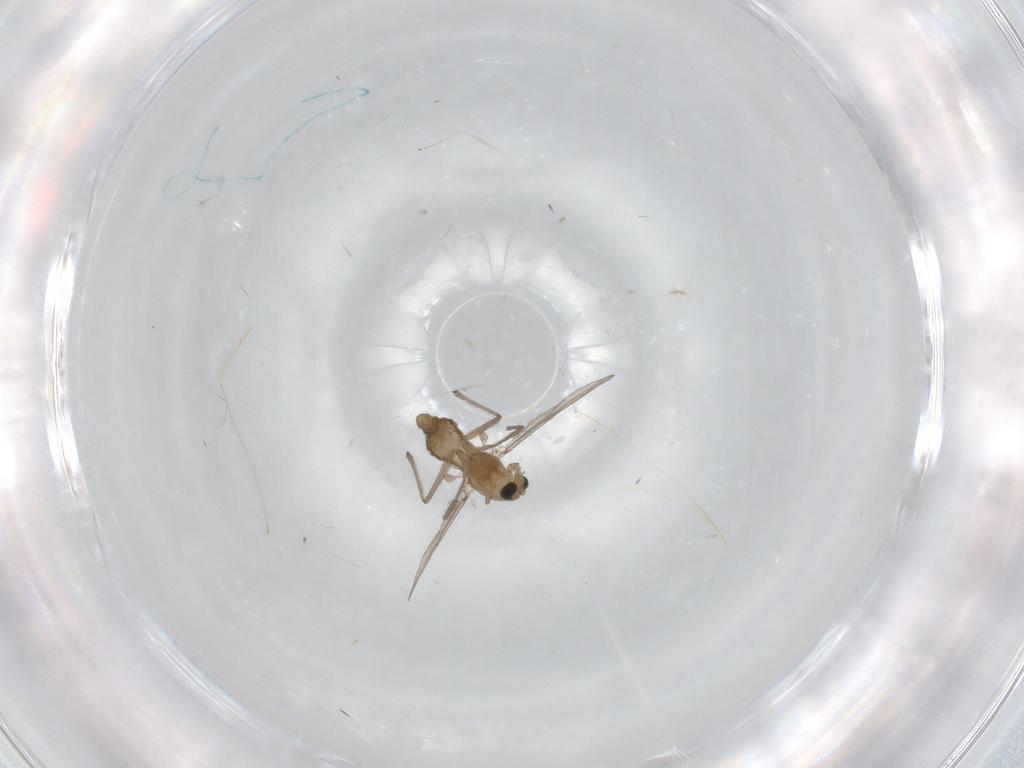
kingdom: Animalia
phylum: Arthropoda
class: Insecta
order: Diptera
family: Chironomidae
